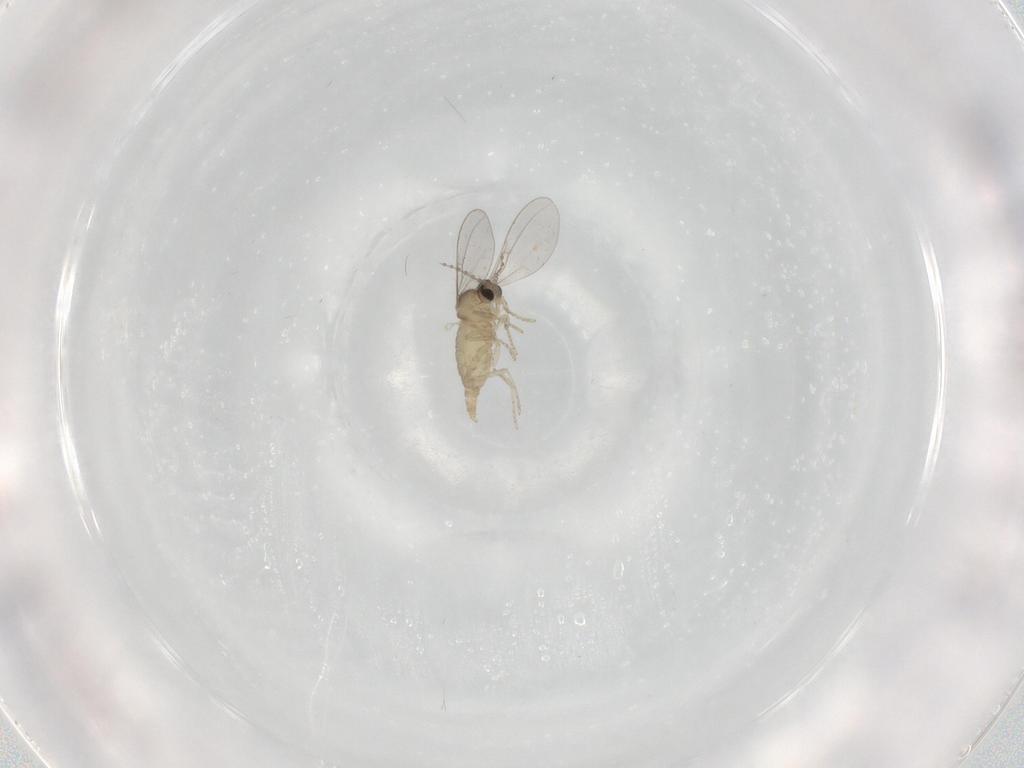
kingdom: Animalia
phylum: Arthropoda
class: Insecta
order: Diptera
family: Cecidomyiidae
